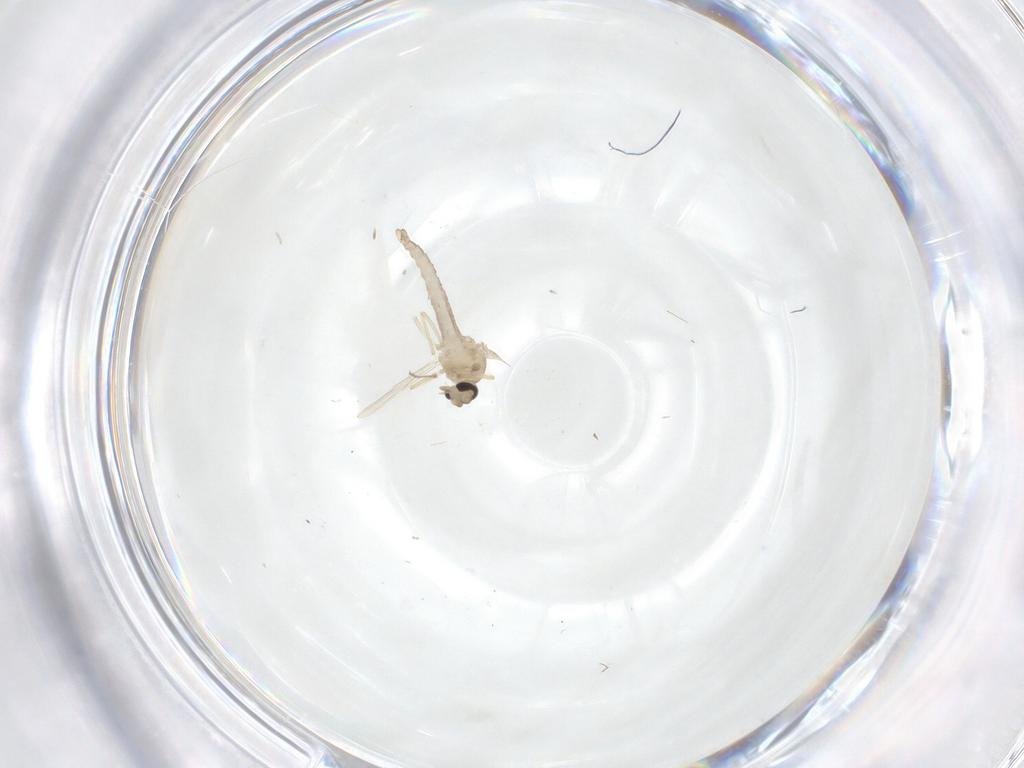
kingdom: Animalia
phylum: Arthropoda
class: Insecta
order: Diptera
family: Ceratopogonidae
